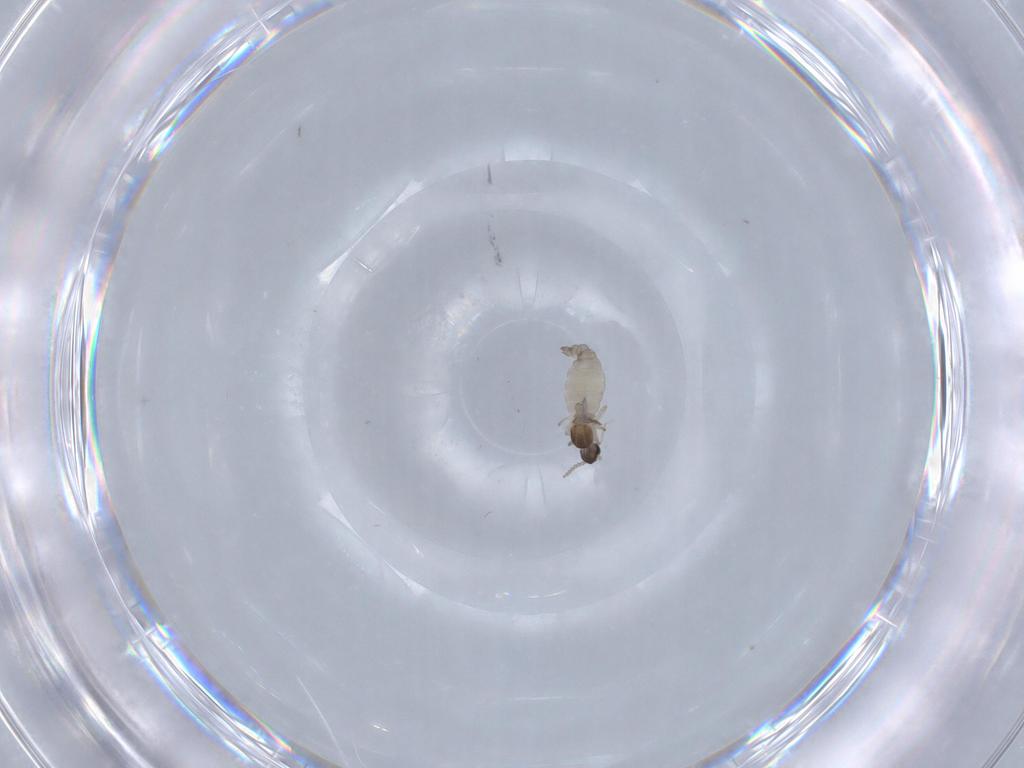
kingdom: Animalia
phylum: Arthropoda
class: Insecta
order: Diptera
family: Cecidomyiidae
